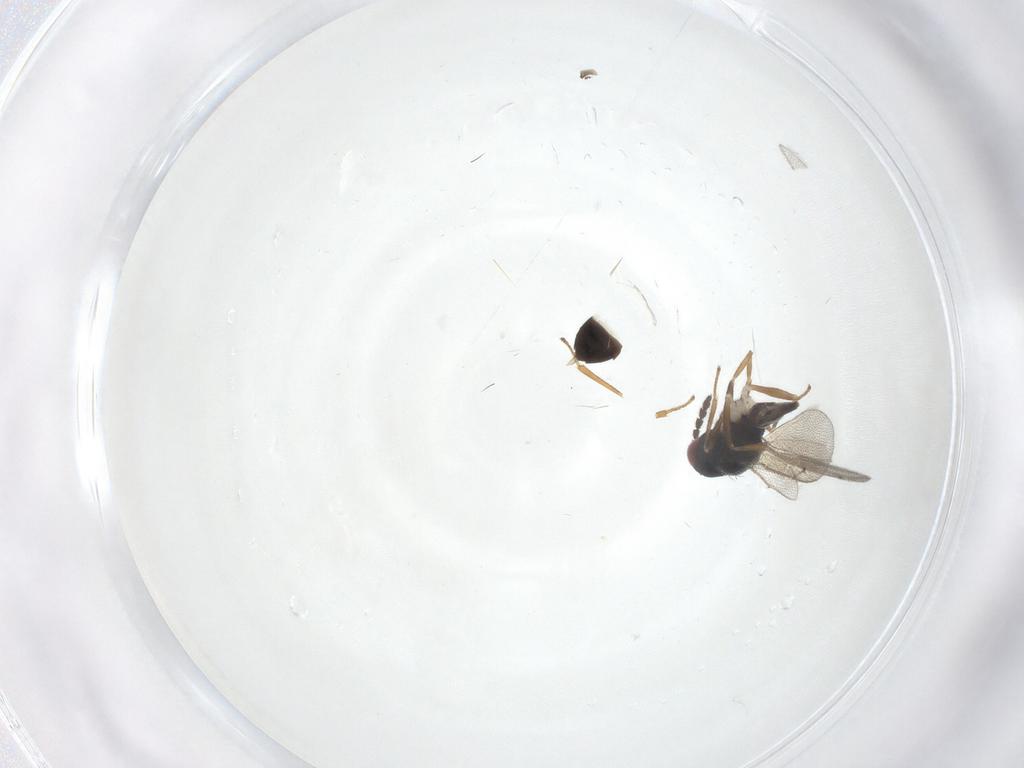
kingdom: Animalia
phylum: Arthropoda
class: Insecta
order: Hymenoptera
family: Eulophidae
